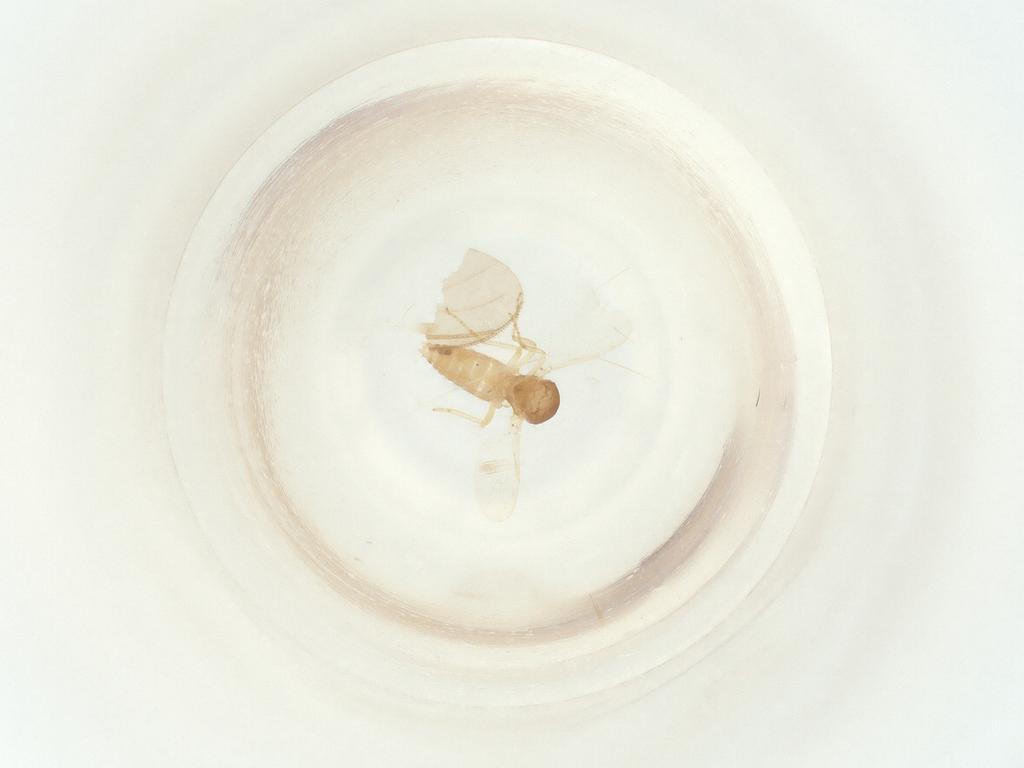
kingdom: Animalia
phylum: Arthropoda
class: Insecta
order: Diptera
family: Ceratopogonidae
